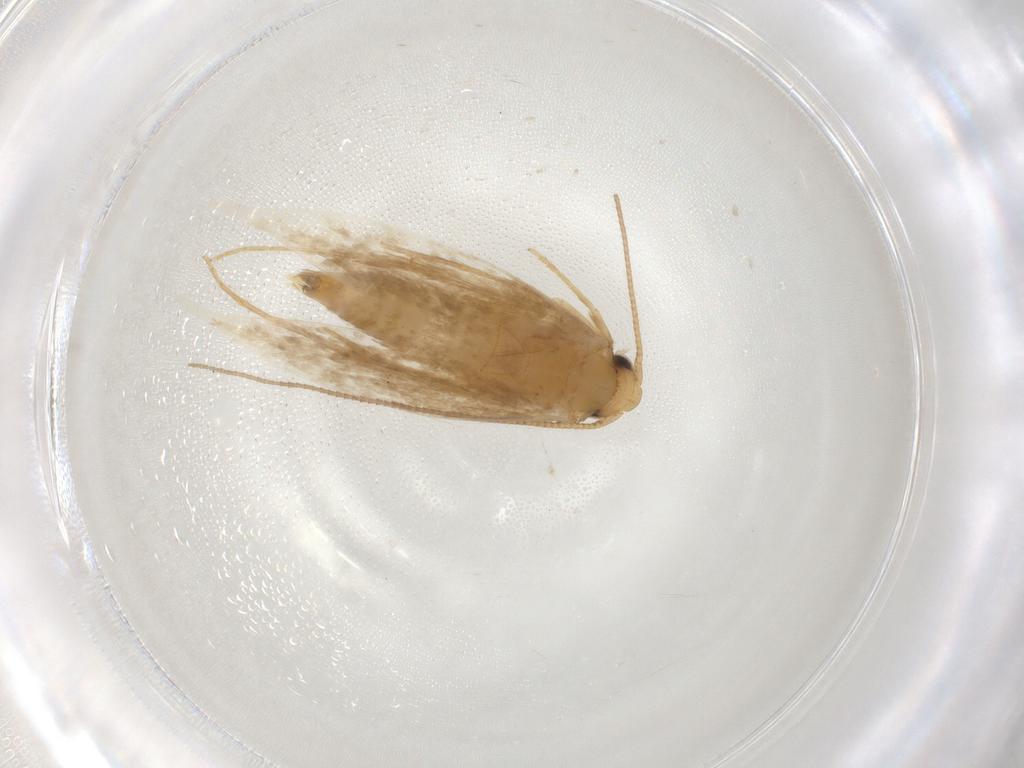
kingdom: Animalia
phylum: Arthropoda
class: Insecta
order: Lepidoptera
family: Tineidae
